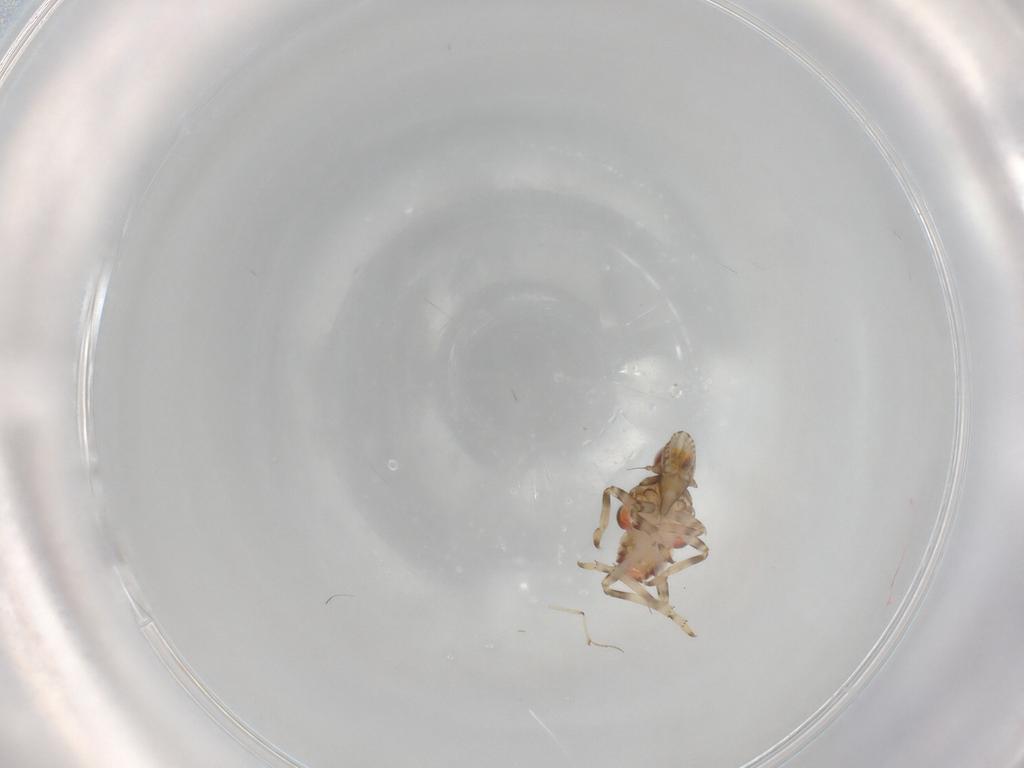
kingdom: Animalia
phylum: Arthropoda
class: Insecta
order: Hemiptera
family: Tropiduchidae
